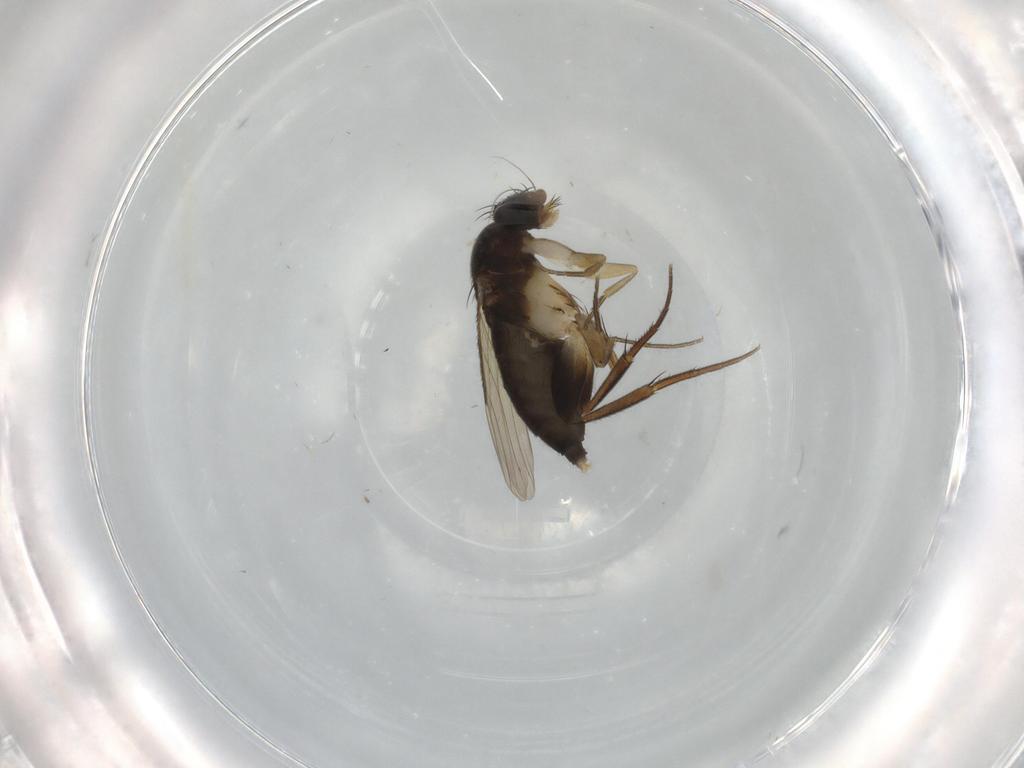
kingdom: Animalia
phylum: Arthropoda
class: Insecta
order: Diptera
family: Phoridae
